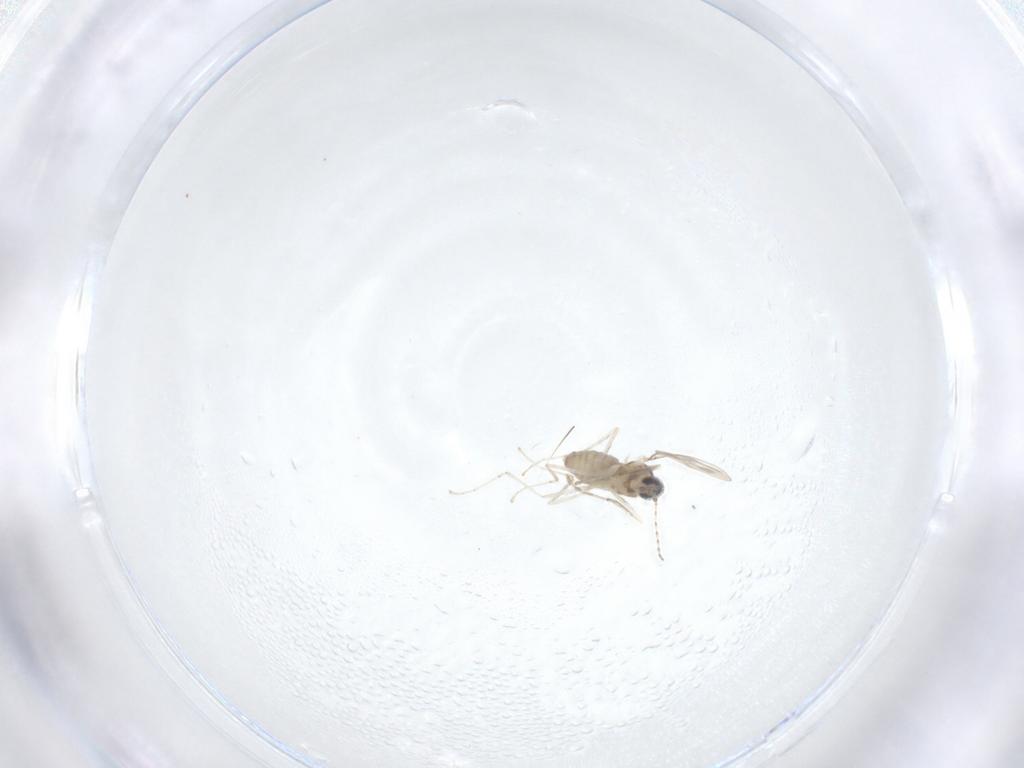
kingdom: Animalia
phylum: Arthropoda
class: Insecta
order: Diptera
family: Cecidomyiidae
